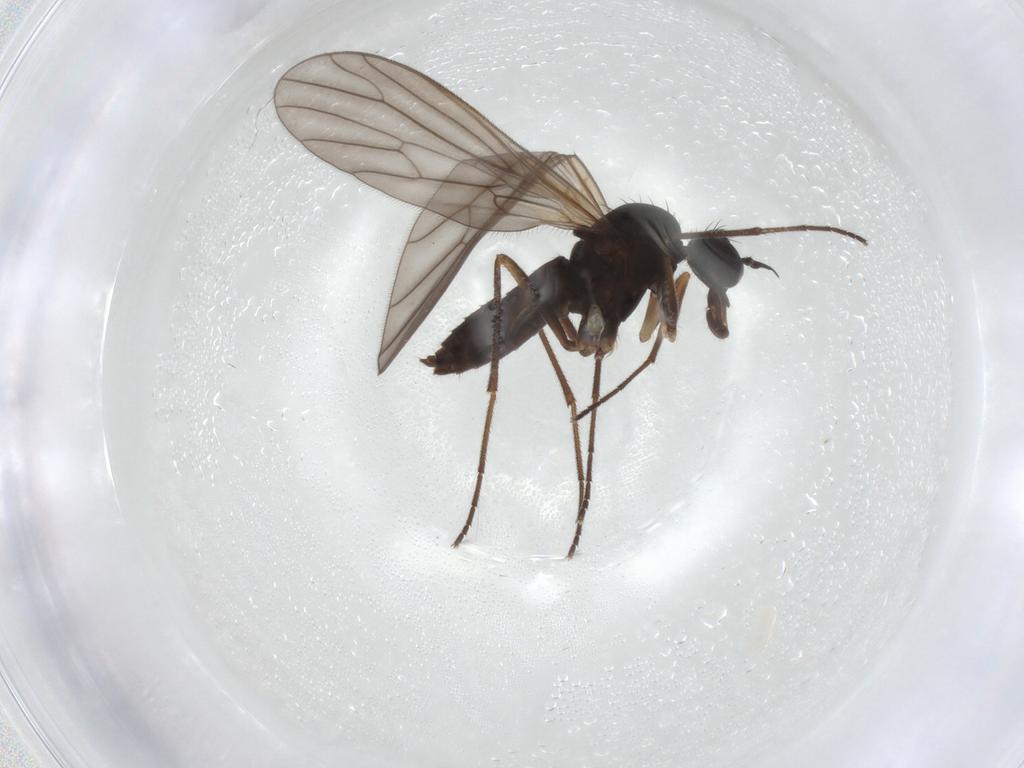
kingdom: Animalia
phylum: Arthropoda
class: Insecta
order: Diptera
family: Empididae
